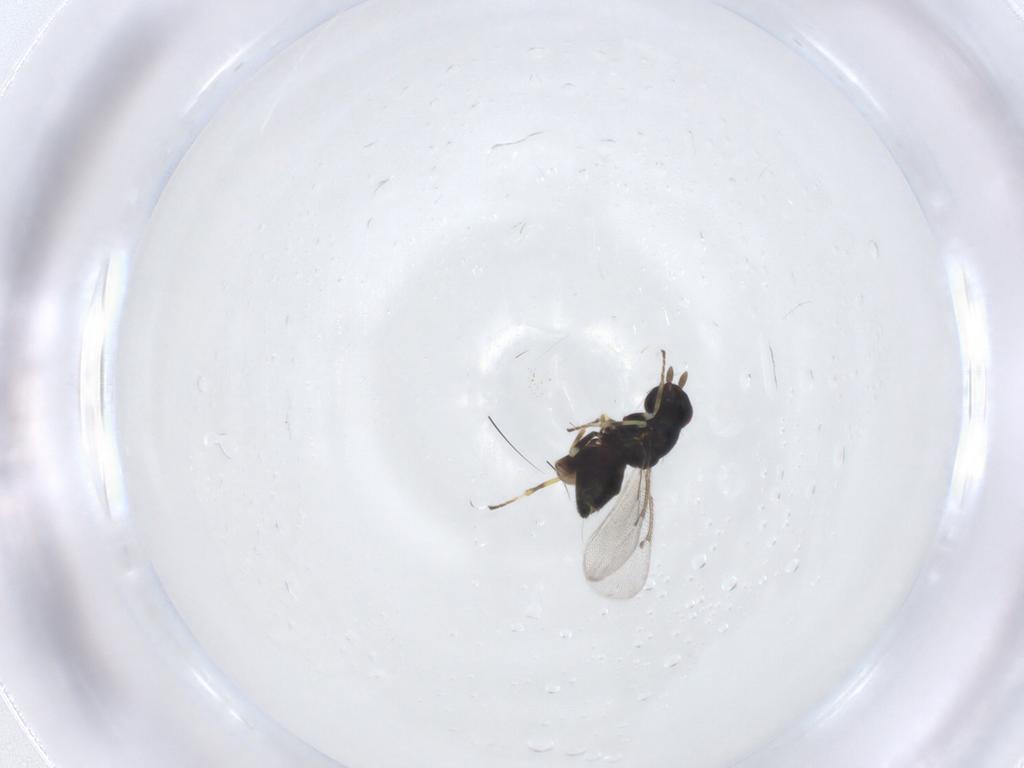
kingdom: Animalia
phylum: Arthropoda
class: Insecta
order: Hymenoptera
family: Eulophidae
